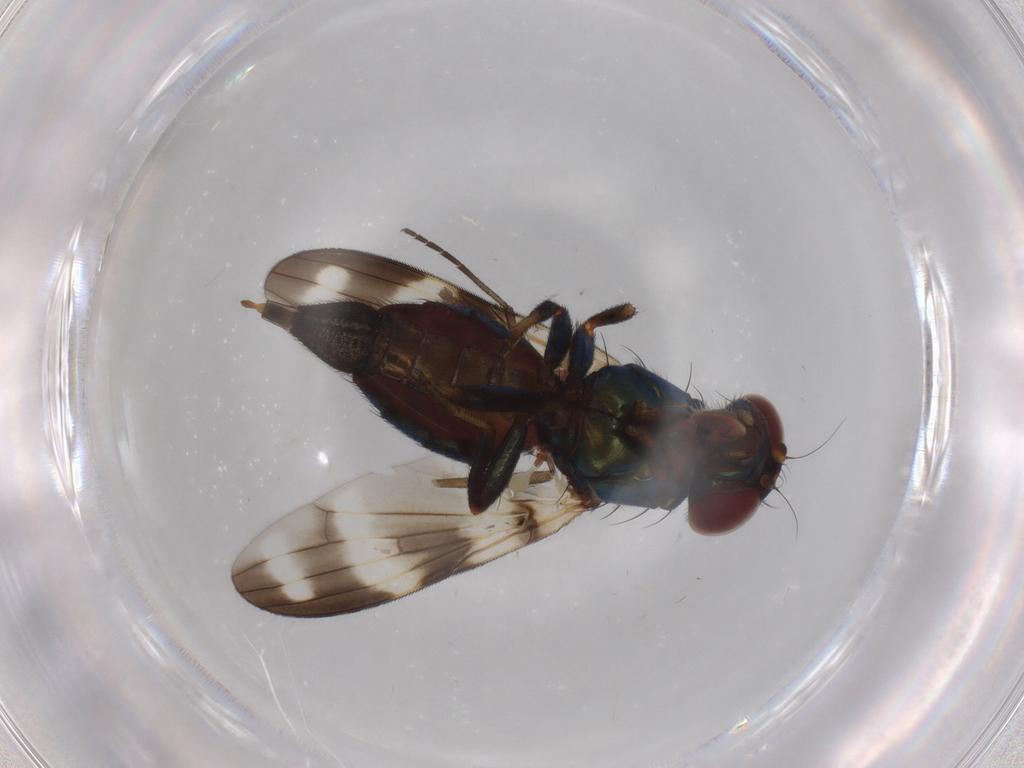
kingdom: Animalia
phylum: Arthropoda
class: Insecta
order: Diptera
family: Ulidiidae
